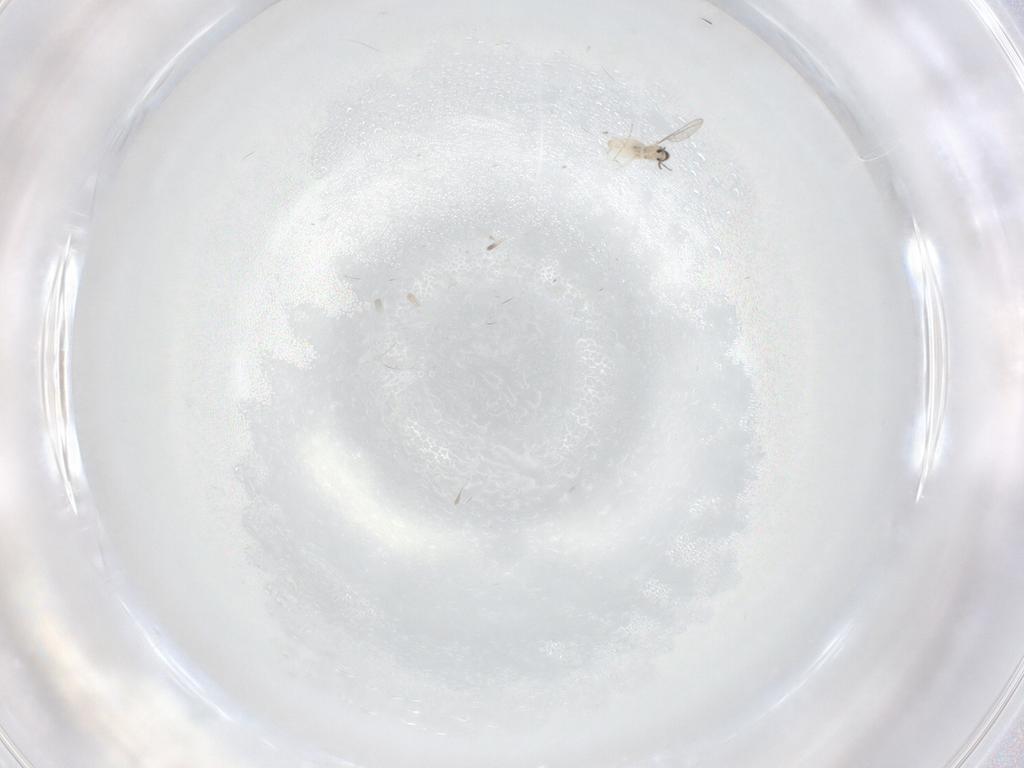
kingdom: Animalia
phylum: Arthropoda
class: Insecta
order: Diptera
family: Cecidomyiidae
